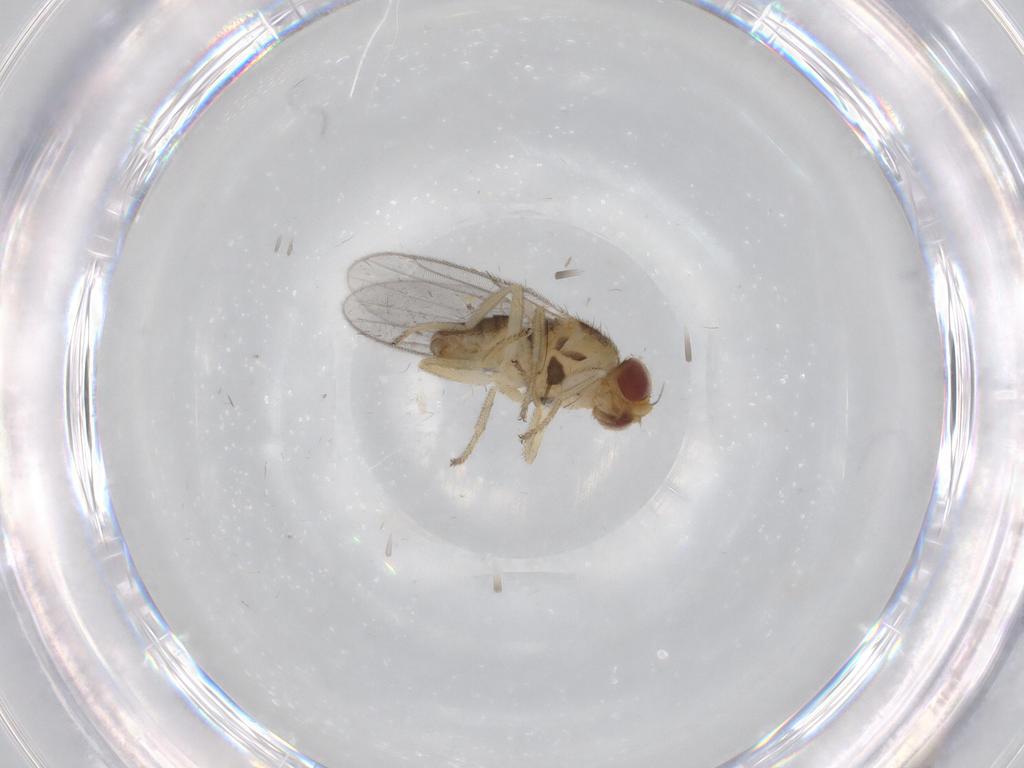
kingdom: Animalia
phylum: Arthropoda
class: Insecta
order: Diptera
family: Chloropidae
